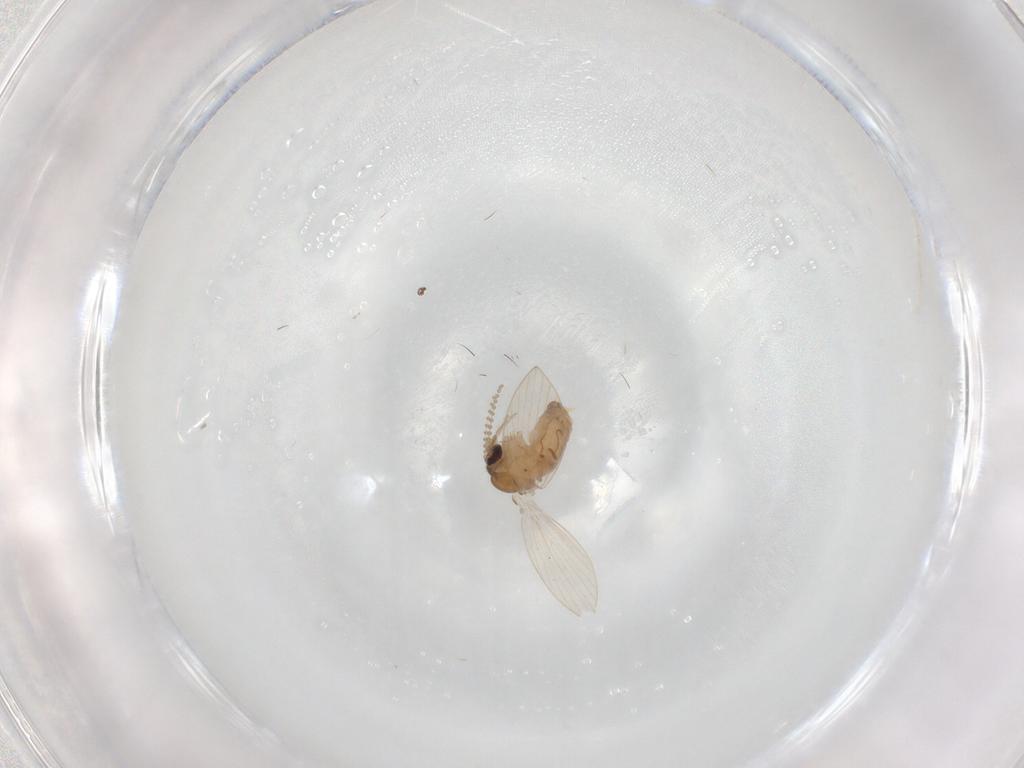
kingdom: Animalia
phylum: Arthropoda
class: Insecta
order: Diptera
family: Psychodidae
